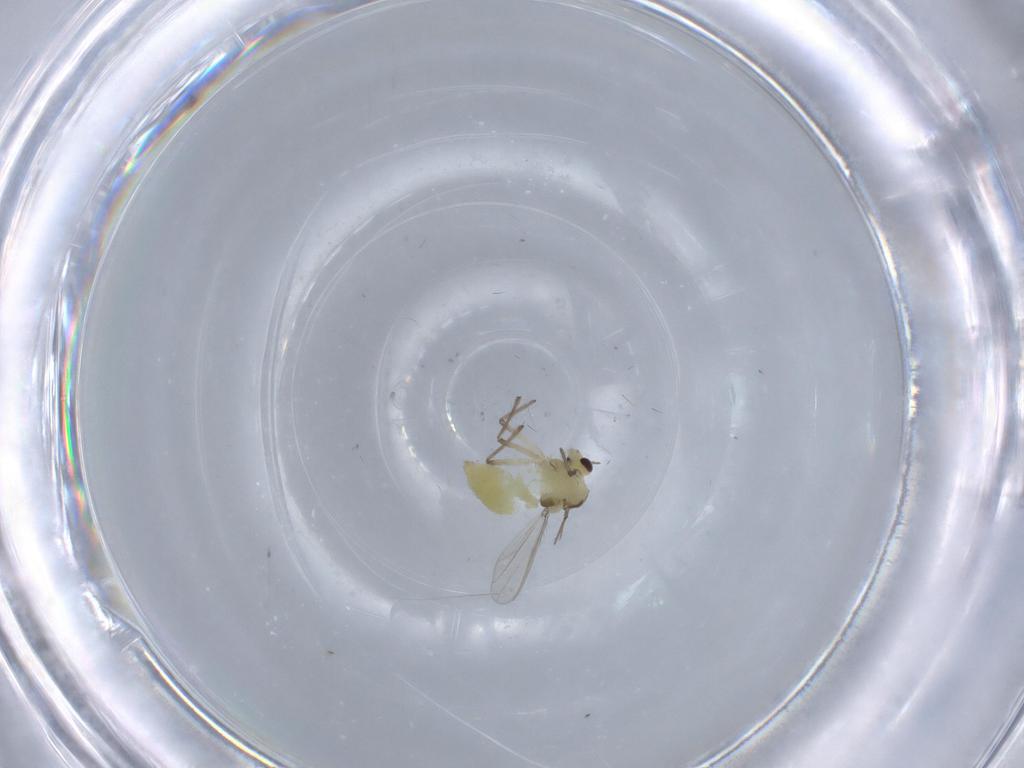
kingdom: Animalia
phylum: Arthropoda
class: Insecta
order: Diptera
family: Chironomidae
